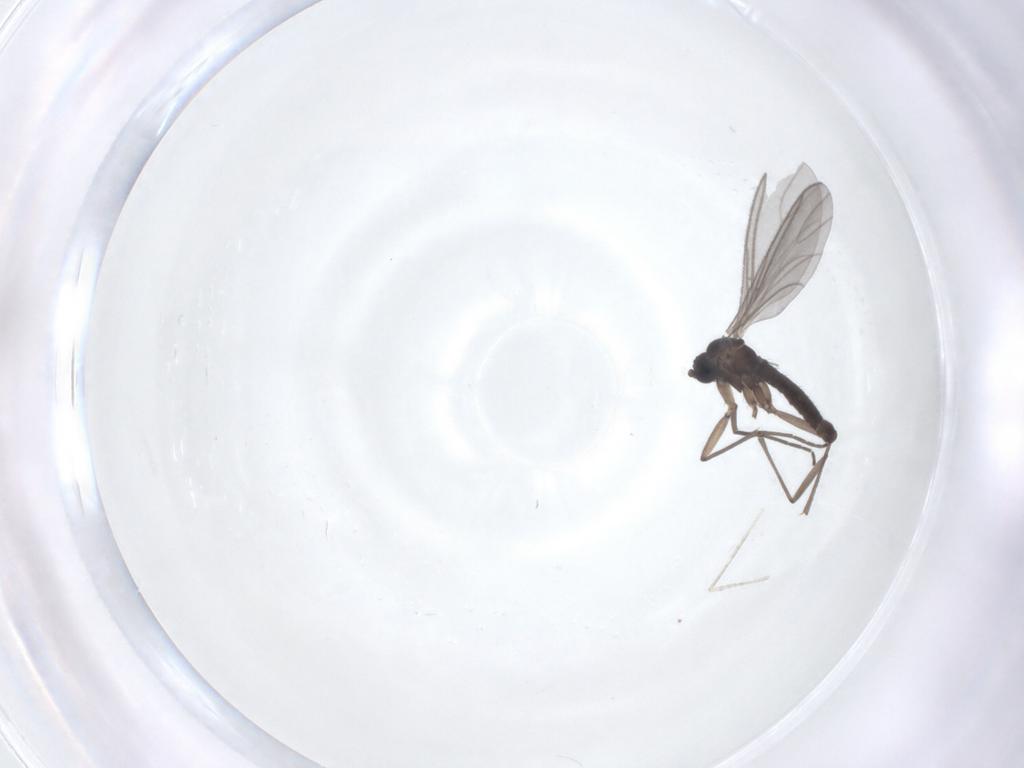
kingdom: Animalia
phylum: Arthropoda
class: Insecta
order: Diptera
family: Sciaridae
